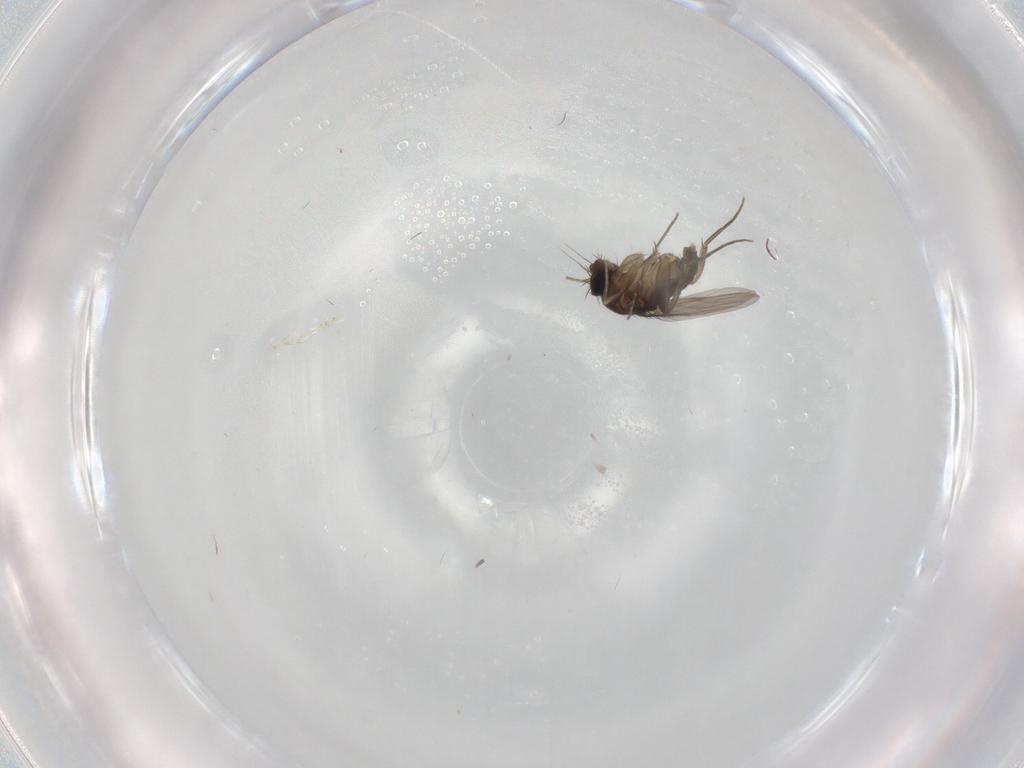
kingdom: Animalia
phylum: Arthropoda
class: Insecta
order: Diptera
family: Phoridae
